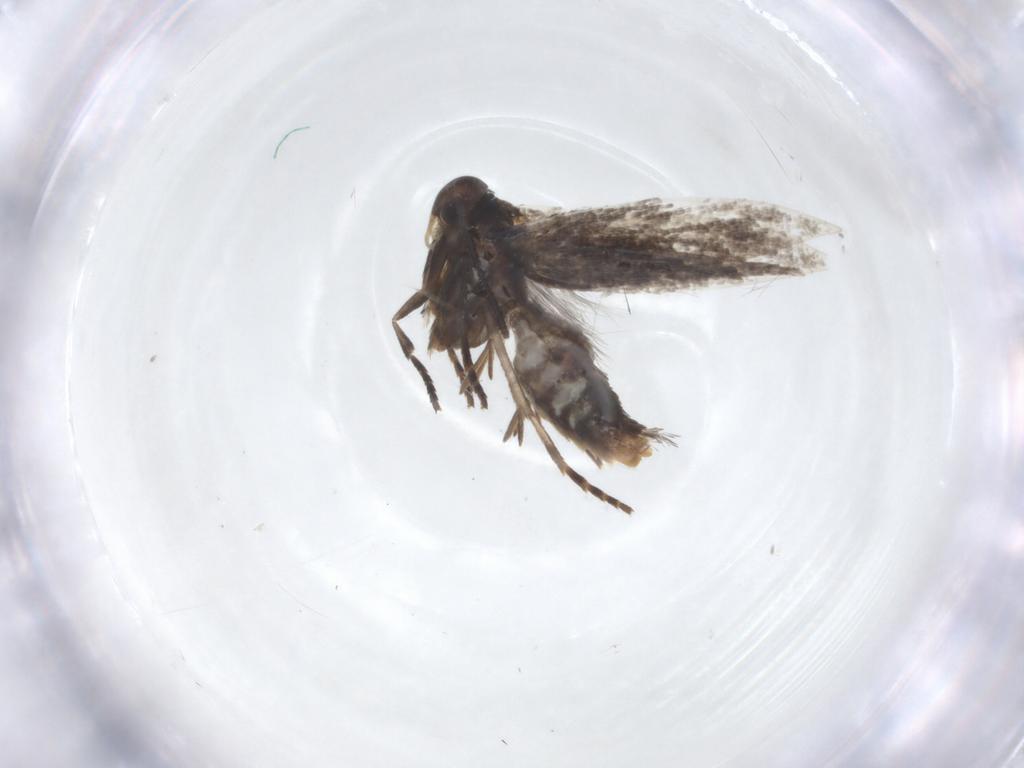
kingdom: Animalia
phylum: Arthropoda
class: Insecta
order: Lepidoptera
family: Elachistidae
